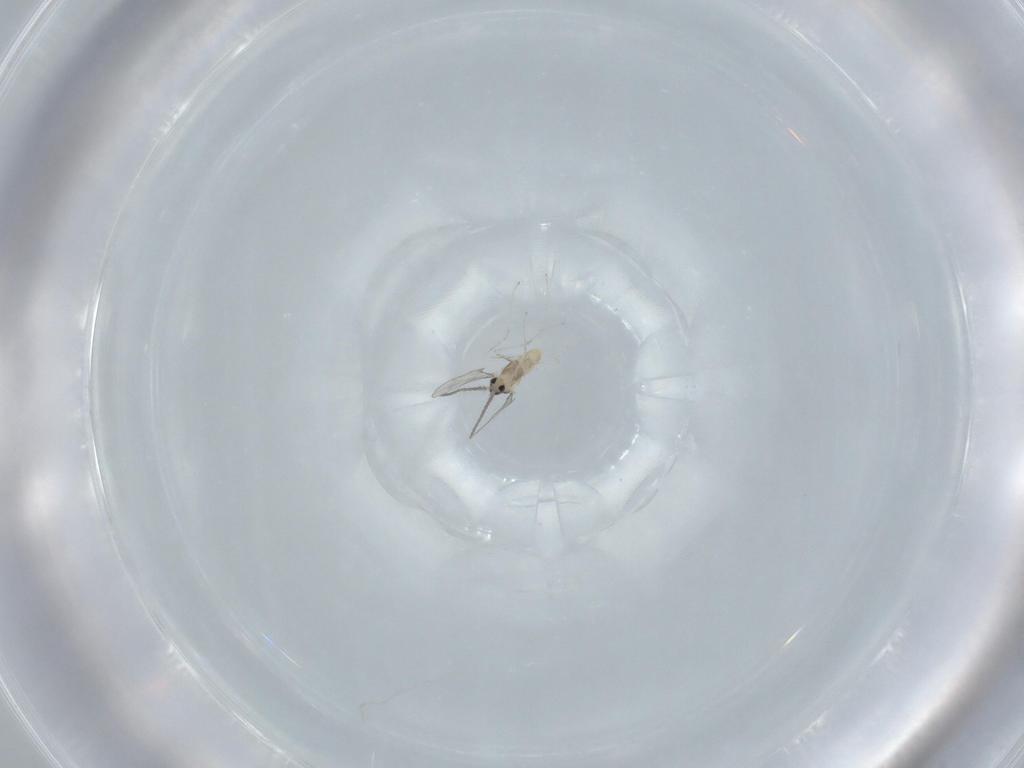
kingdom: Animalia
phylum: Arthropoda
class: Insecta
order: Diptera
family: Cecidomyiidae
